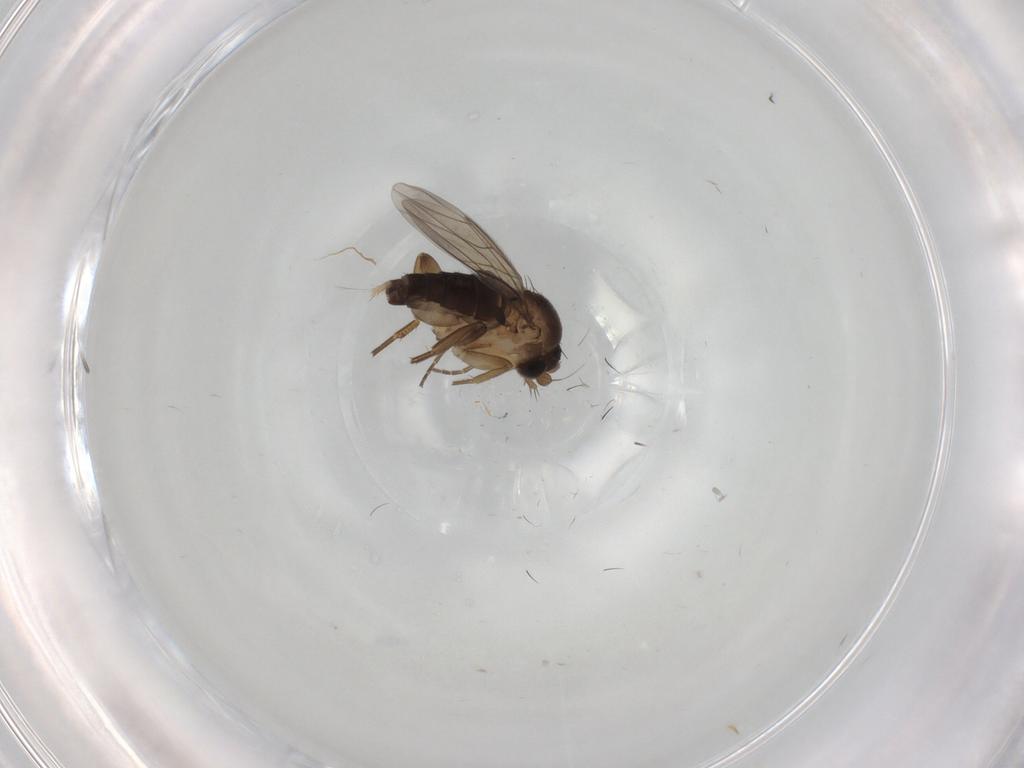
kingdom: Animalia
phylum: Arthropoda
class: Insecta
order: Diptera
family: Phoridae
